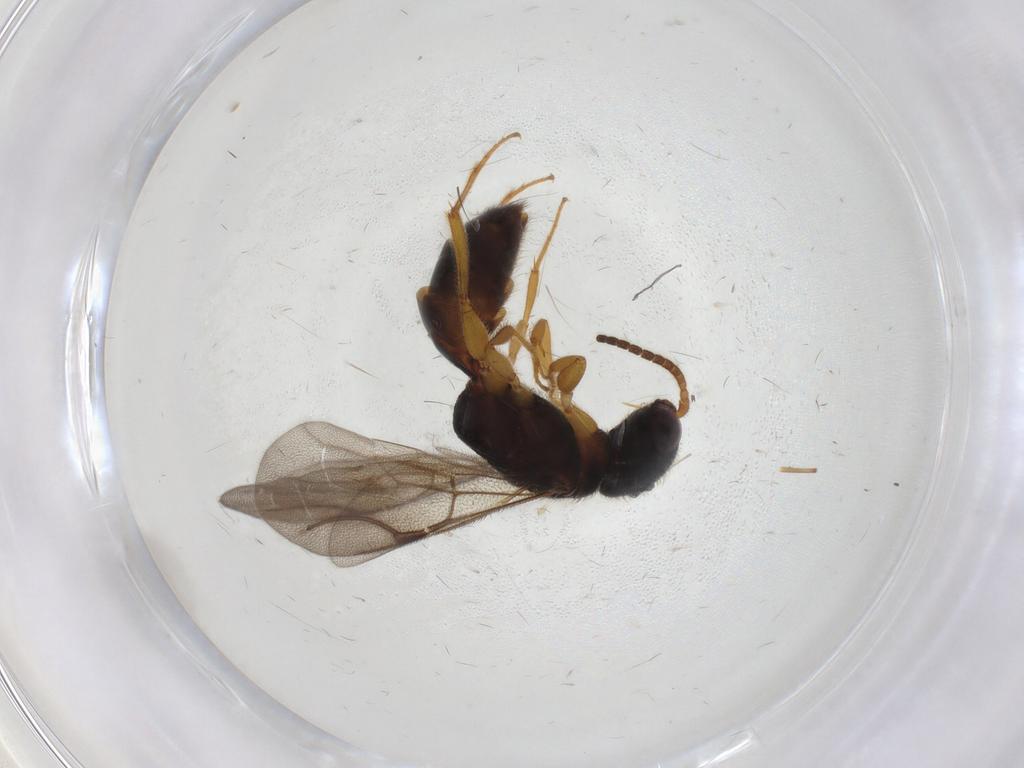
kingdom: Animalia
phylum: Arthropoda
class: Insecta
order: Hymenoptera
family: Bethylidae
